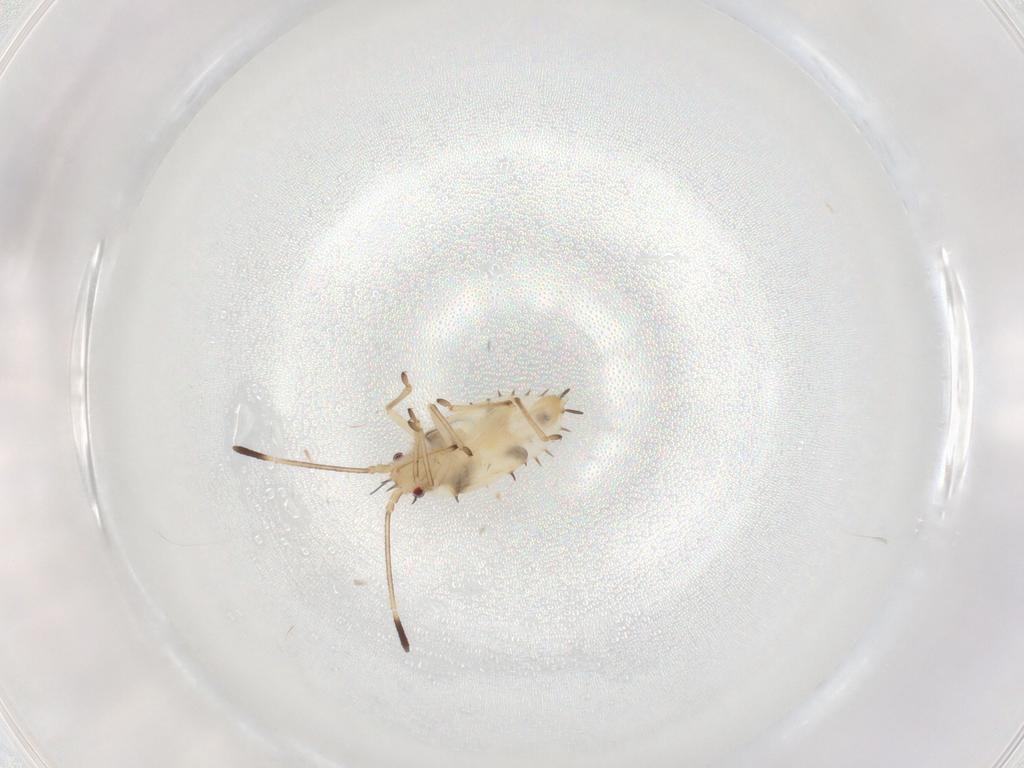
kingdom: Animalia
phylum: Arthropoda
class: Insecta
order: Hemiptera
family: Tingidae
